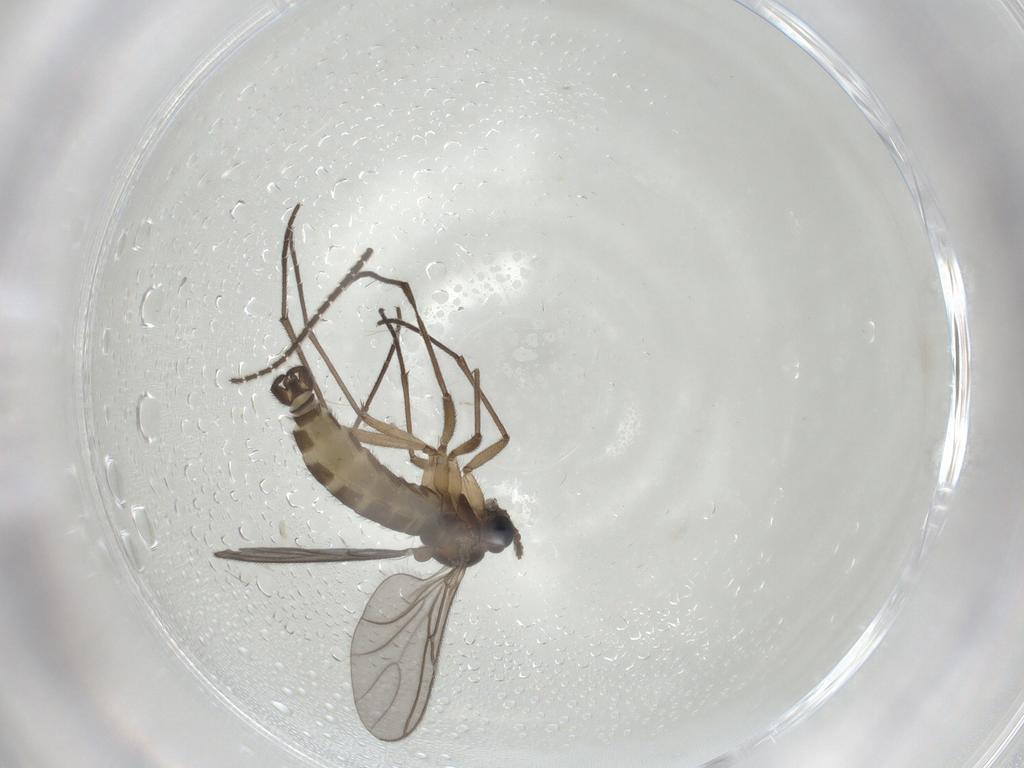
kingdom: Animalia
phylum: Arthropoda
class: Insecta
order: Diptera
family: Sciaridae
